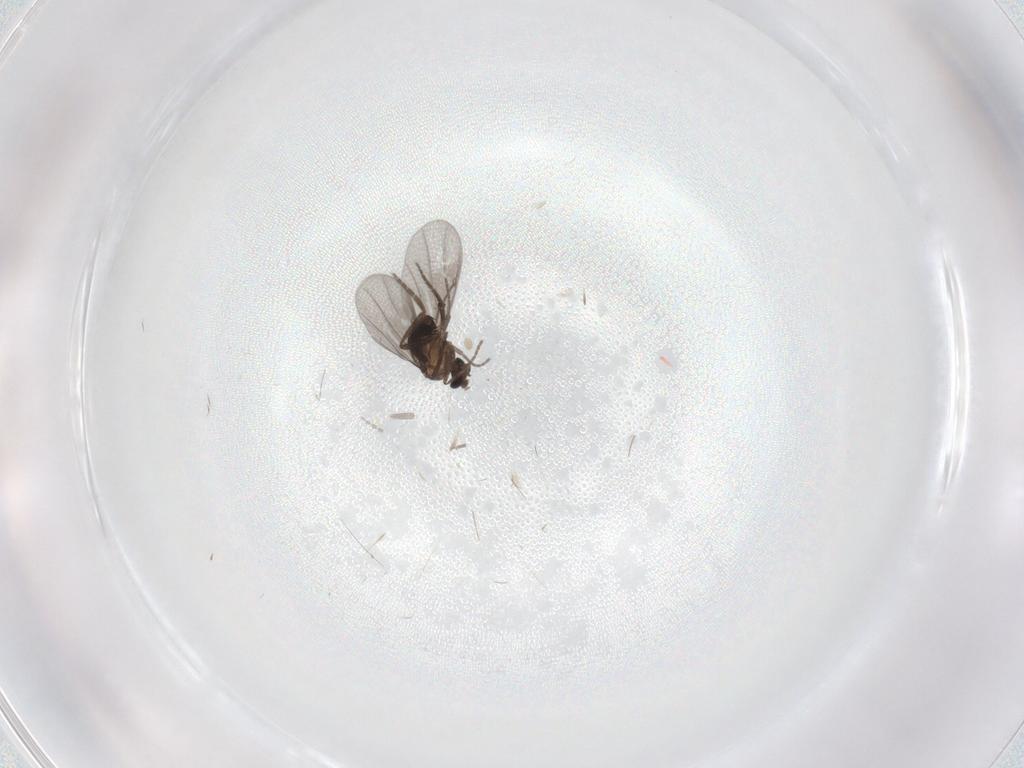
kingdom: Animalia
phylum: Arthropoda
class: Insecta
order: Diptera
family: Cecidomyiidae
